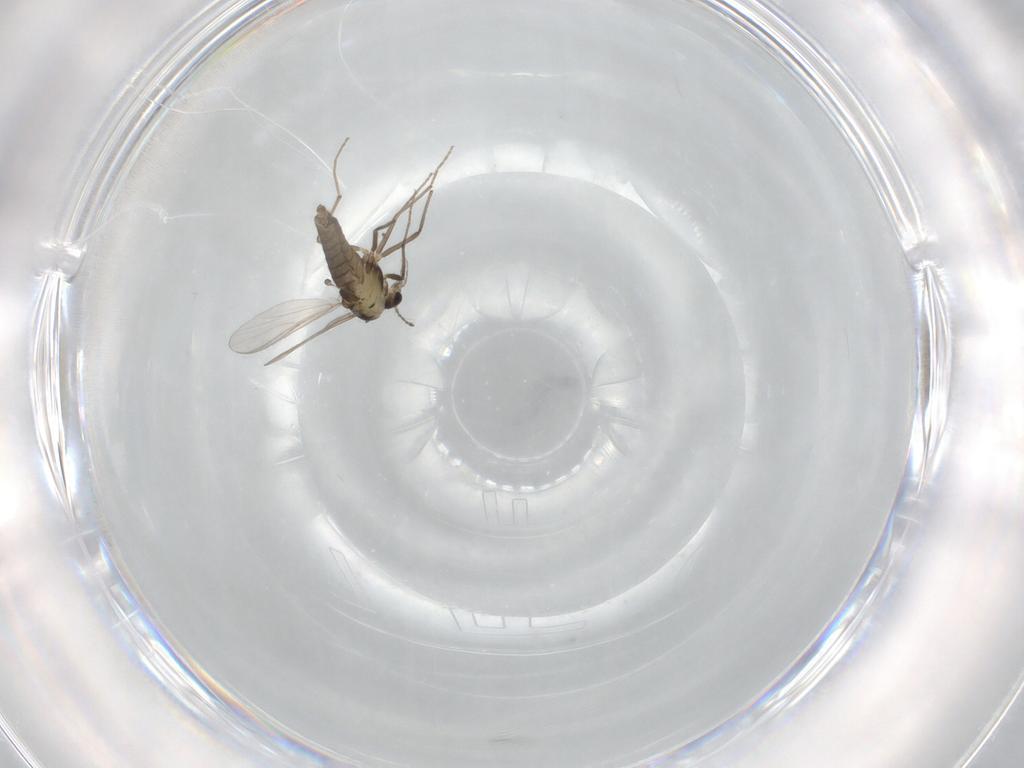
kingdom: Animalia
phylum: Arthropoda
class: Insecta
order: Diptera
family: Chironomidae
